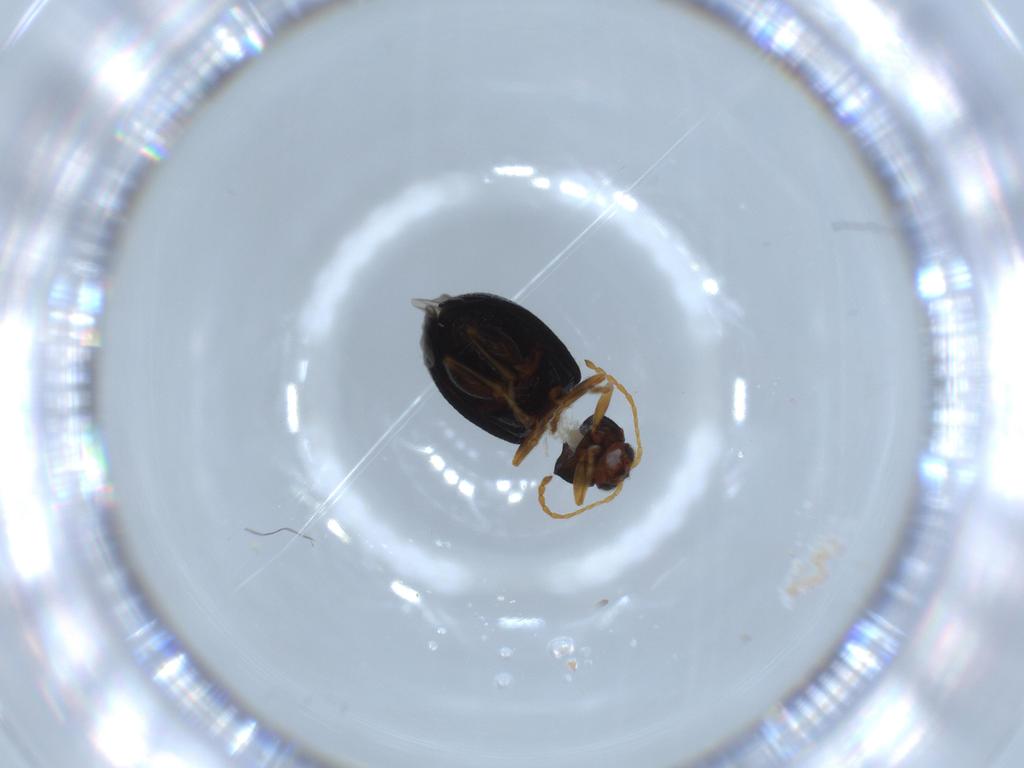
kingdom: Animalia
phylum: Arthropoda
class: Insecta
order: Coleoptera
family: Chrysomelidae
